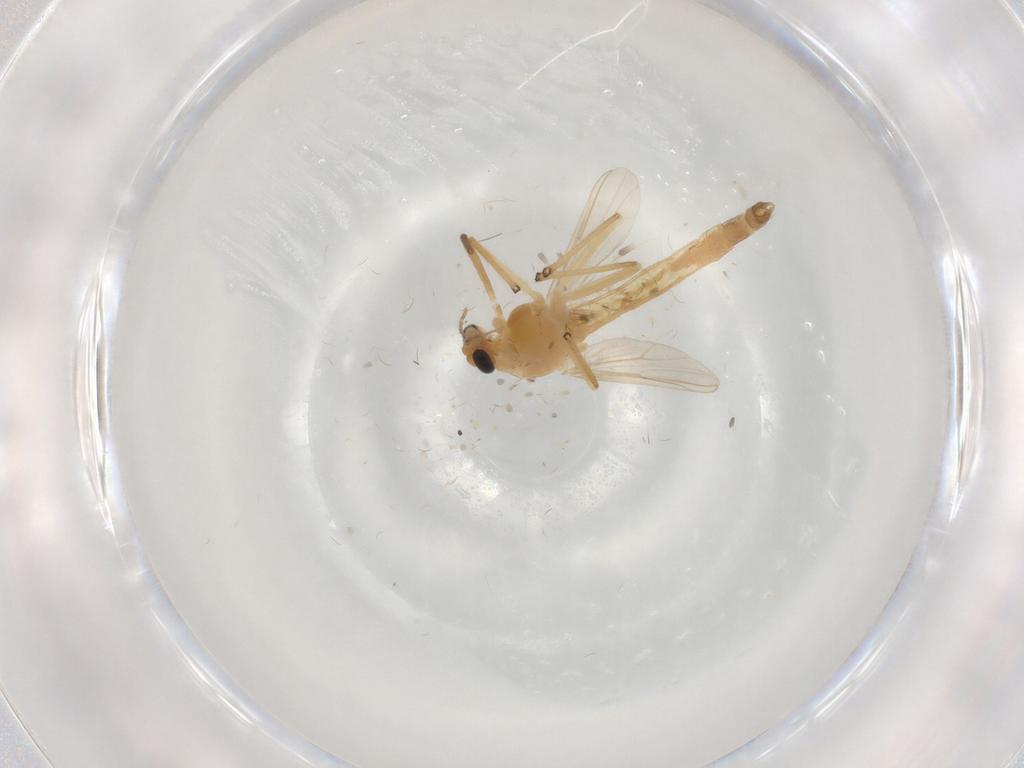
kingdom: Animalia
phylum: Arthropoda
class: Insecta
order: Diptera
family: Chironomidae
